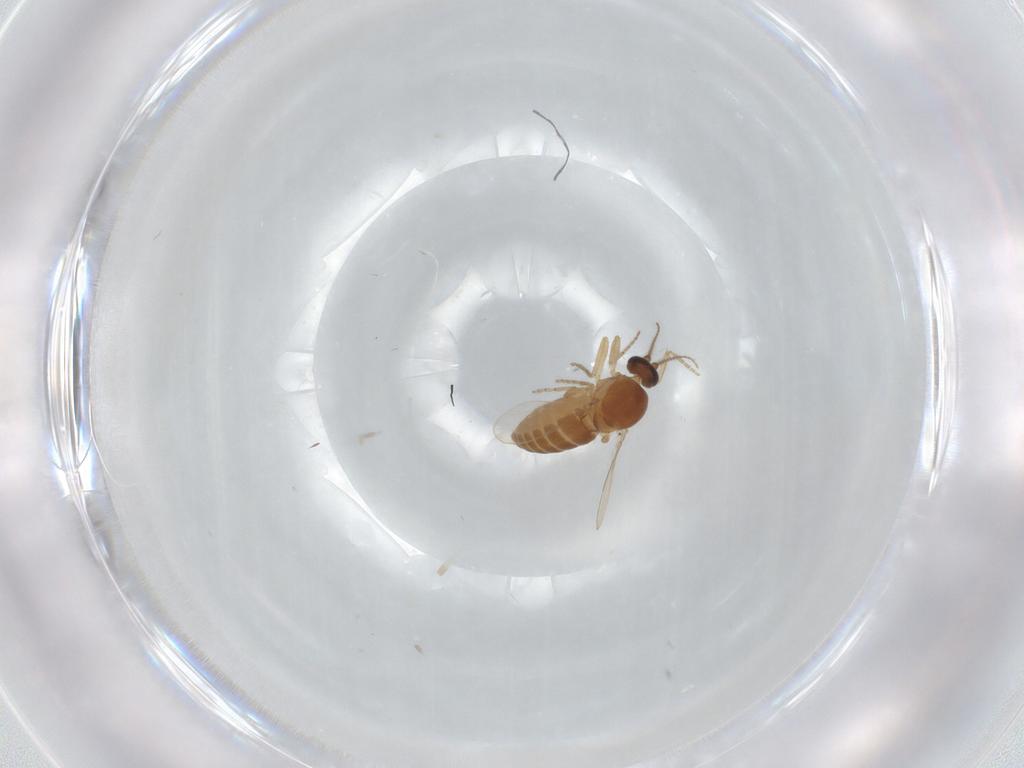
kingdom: Animalia
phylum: Arthropoda
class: Insecta
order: Diptera
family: Ceratopogonidae
